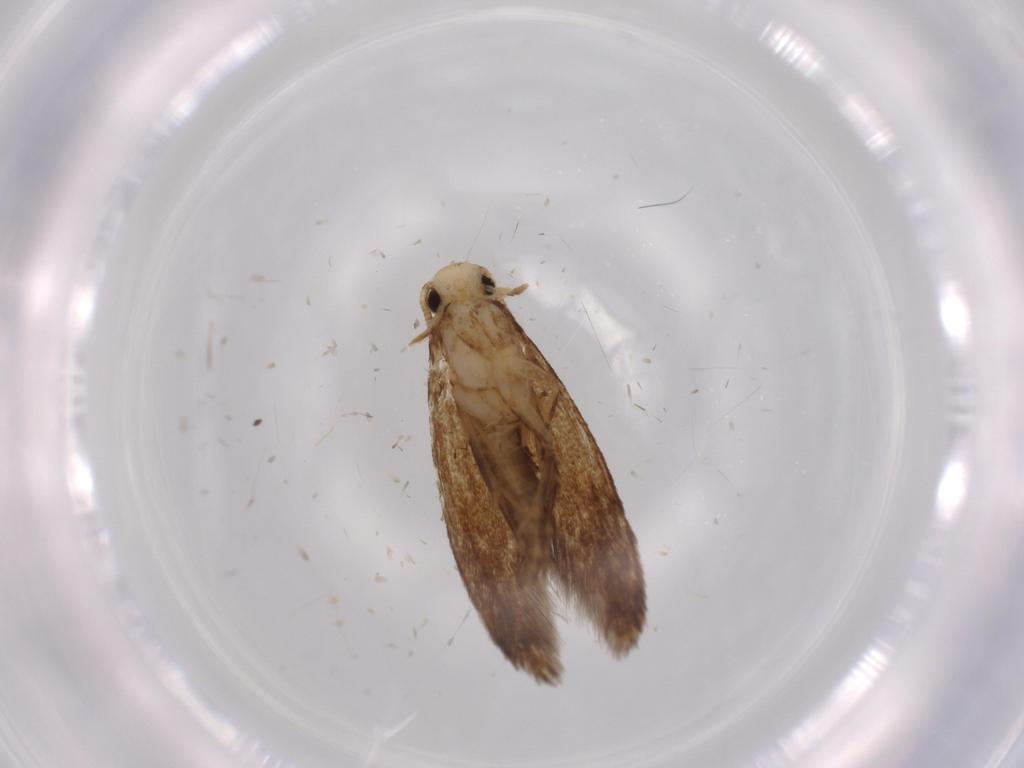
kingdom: Animalia
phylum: Arthropoda
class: Insecta
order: Lepidoptera
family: Tineidae
